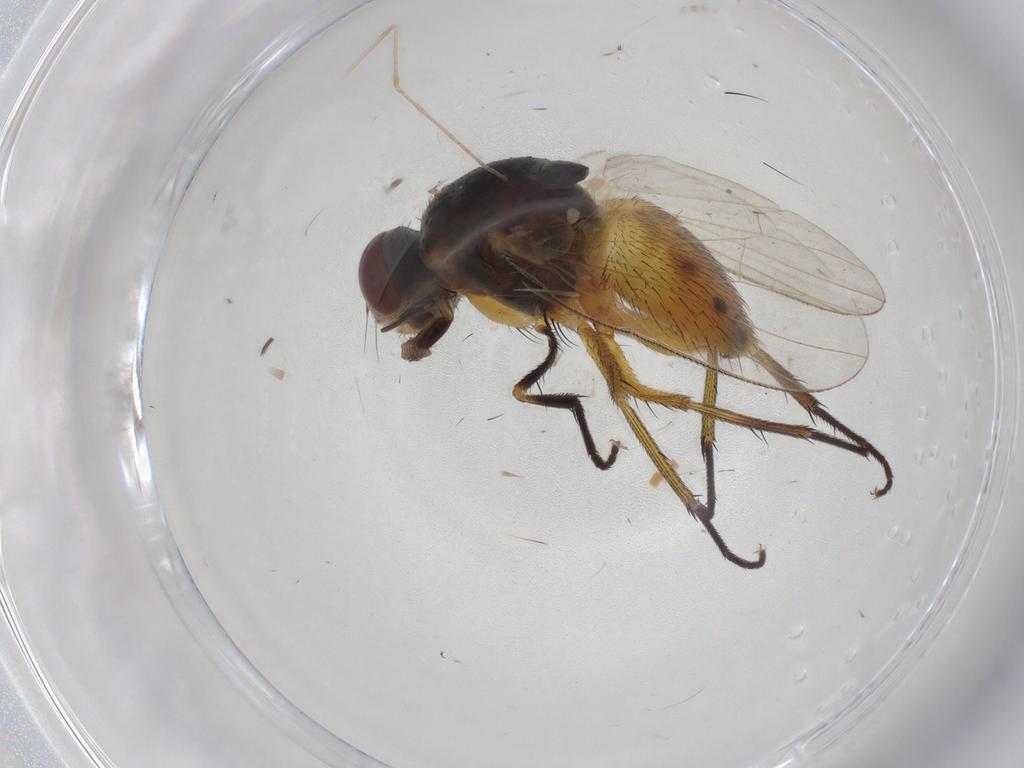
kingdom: Animalia
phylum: Arthropoda
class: Insecta
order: Diptera
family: Muscidae
